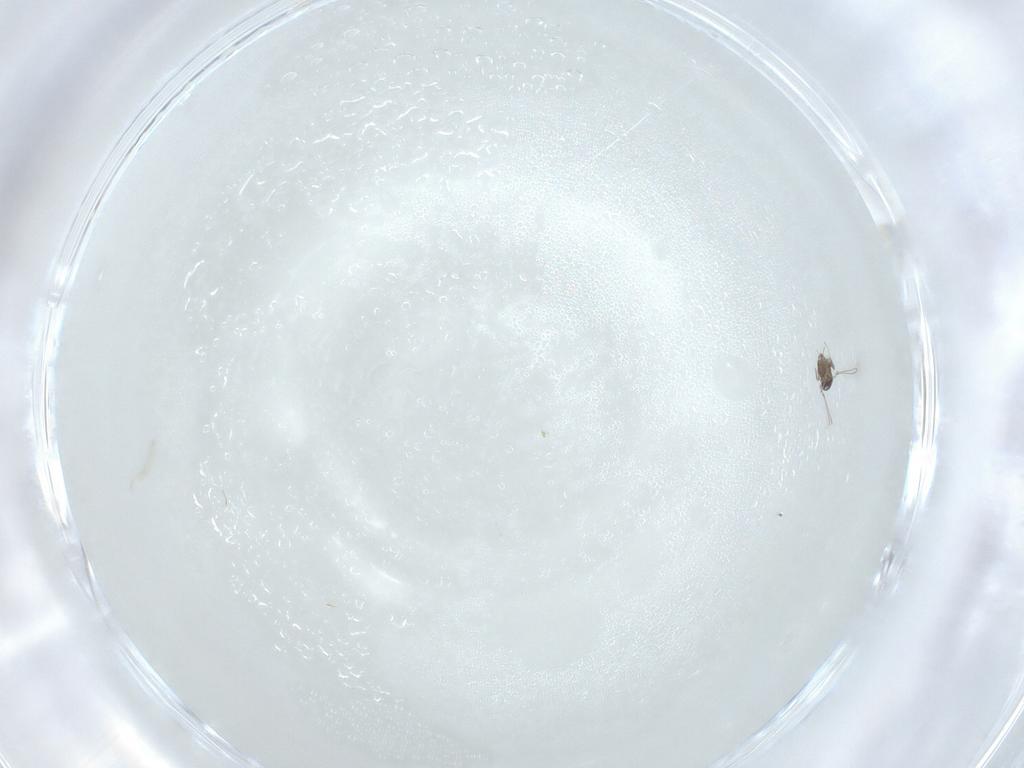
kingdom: Animalia
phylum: Arthropoda
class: Insecta
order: Hymenoptera
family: Mymaridae
